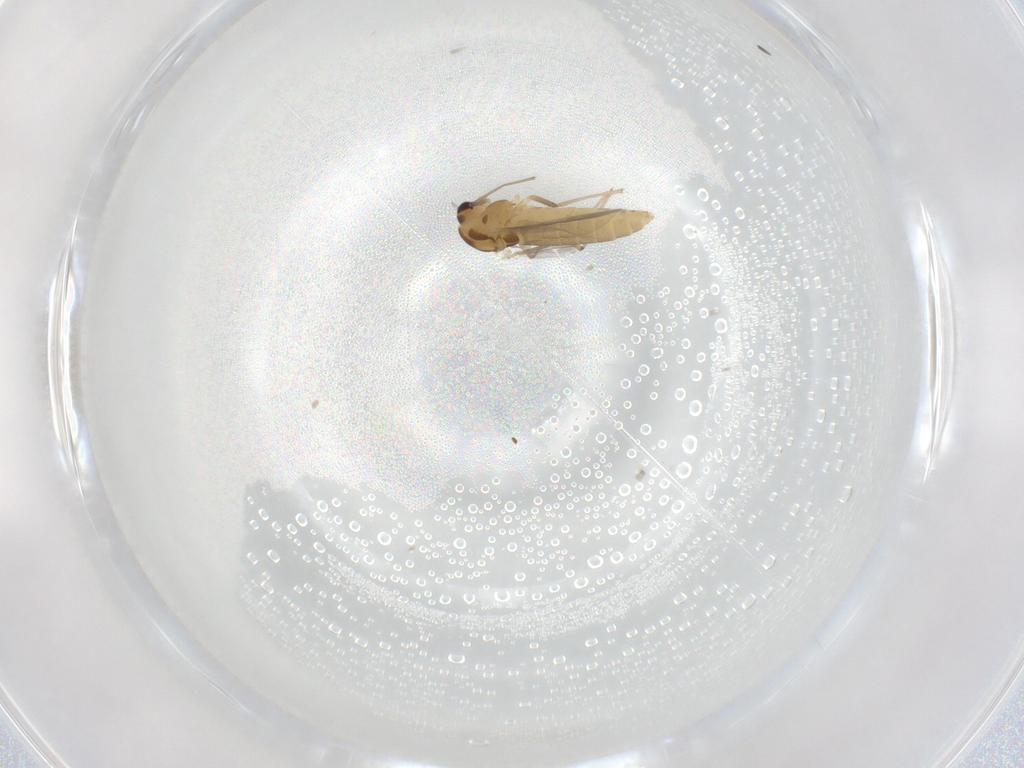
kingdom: Animalia
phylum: Arthropoda
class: Insecta
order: Diptera
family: Chironomidae
